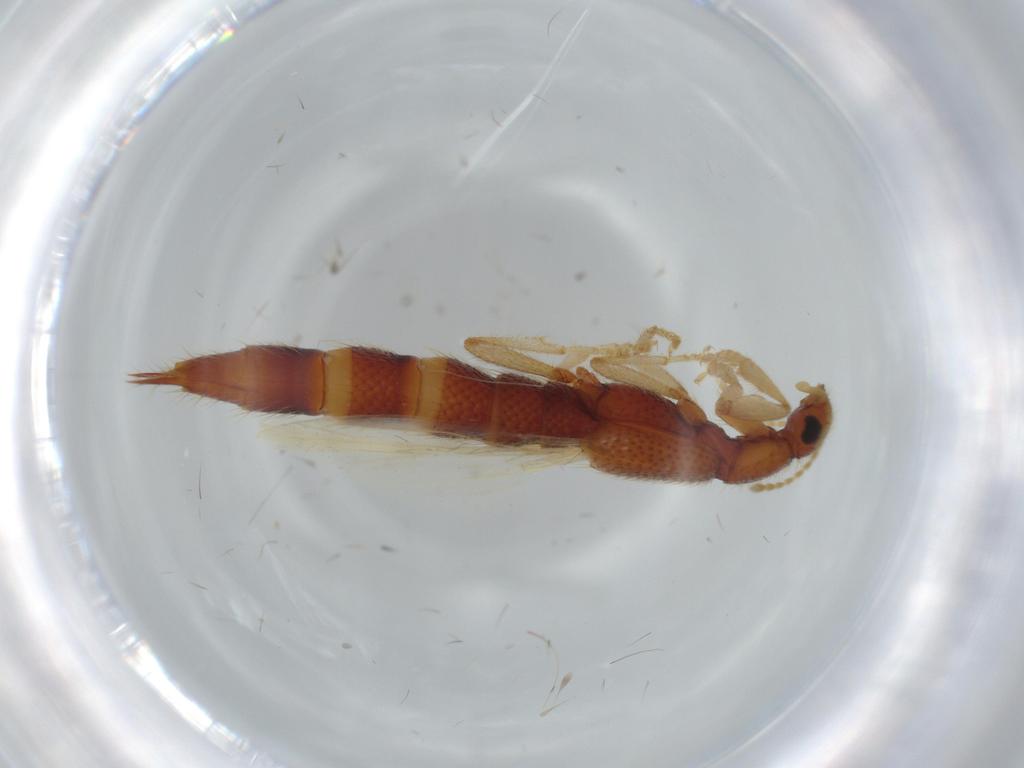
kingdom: Animalia
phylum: Arthropoda
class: Insecta
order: Coleoptera
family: Staphylinidae
